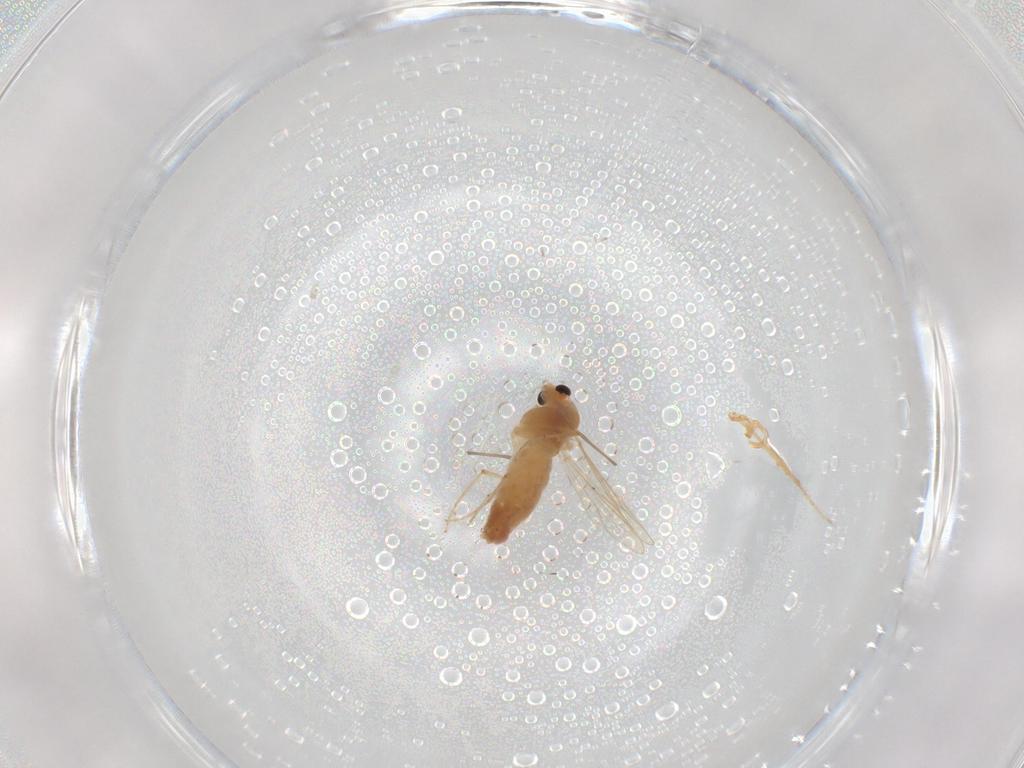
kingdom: Animalia
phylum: Arthropoda
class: Insecta
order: Diptera
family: Chironomidae
